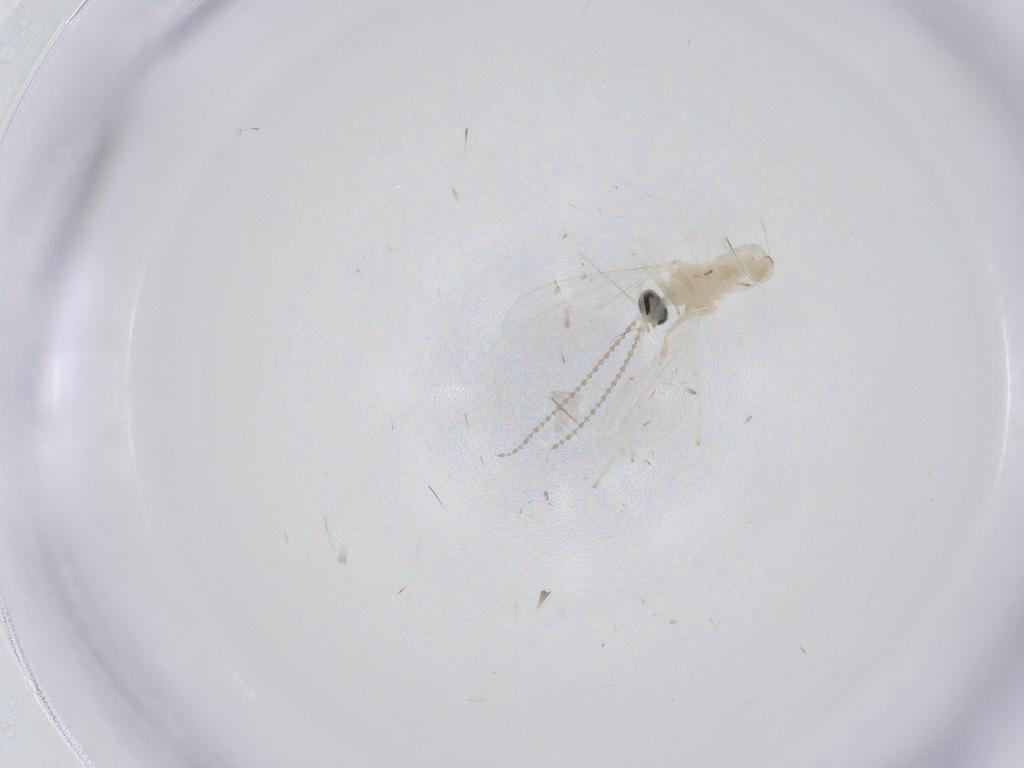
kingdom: Animalia
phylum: Arthropoda
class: Insecta
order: Diptera
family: Cecidomyiidae
